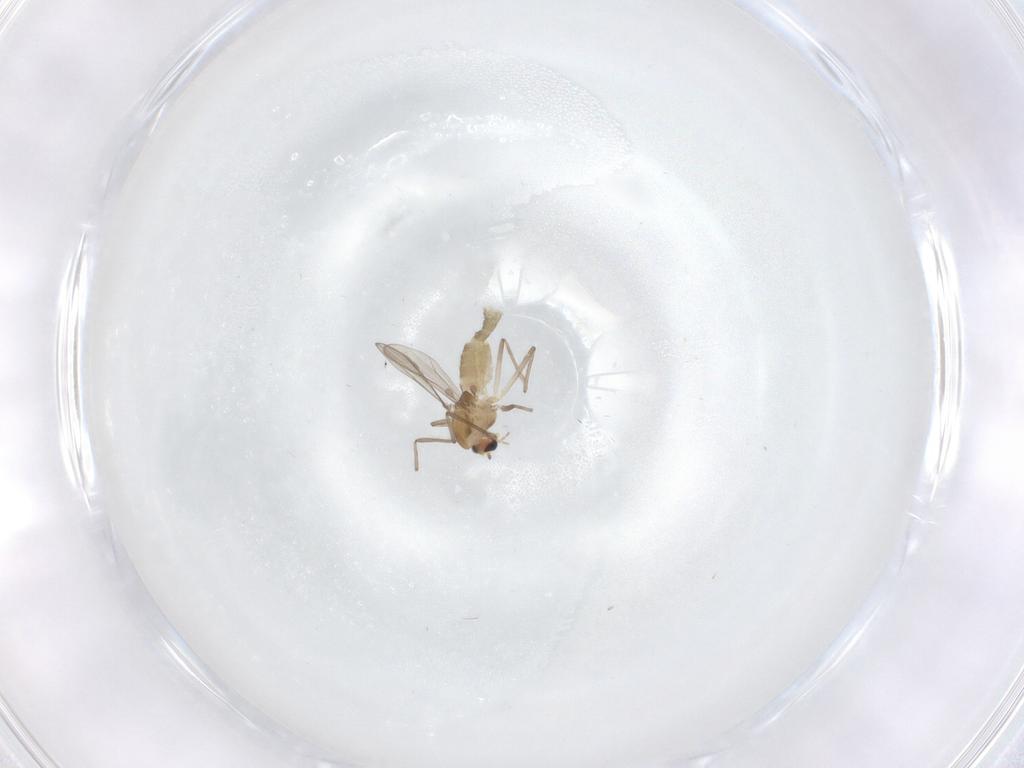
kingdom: Animalia
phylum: Arthropoda
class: Insecta
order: Diptera
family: Chironomidae
